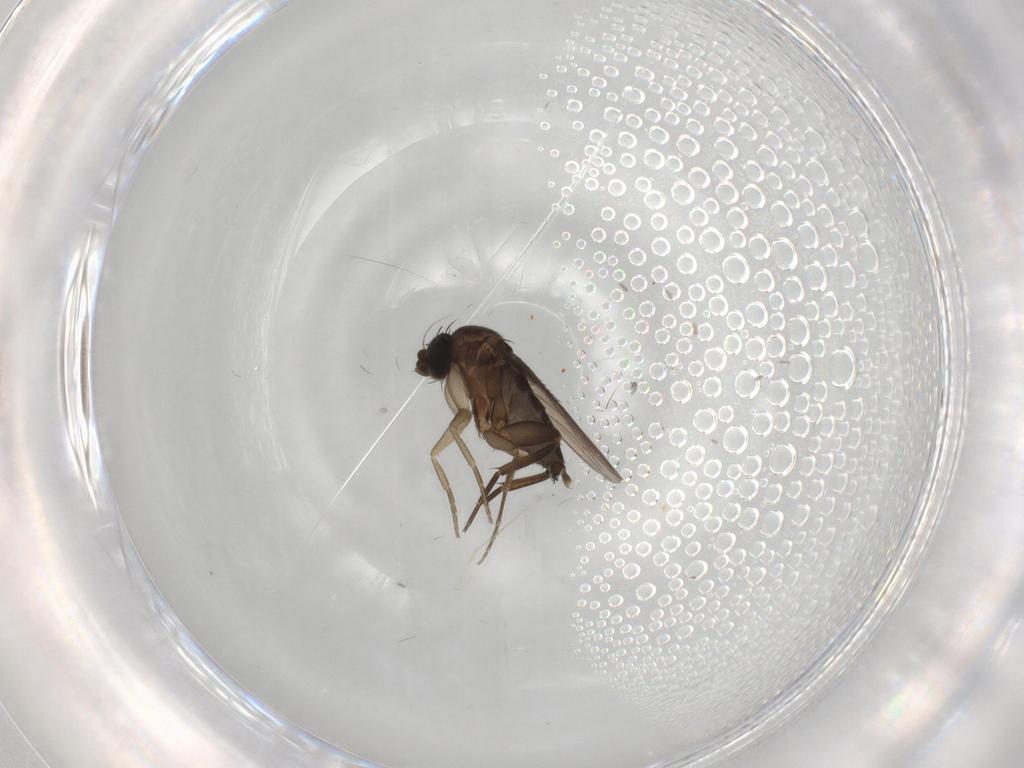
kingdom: Animalia
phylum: Arthropoda
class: Insecta
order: Diptera
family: Phoridae
